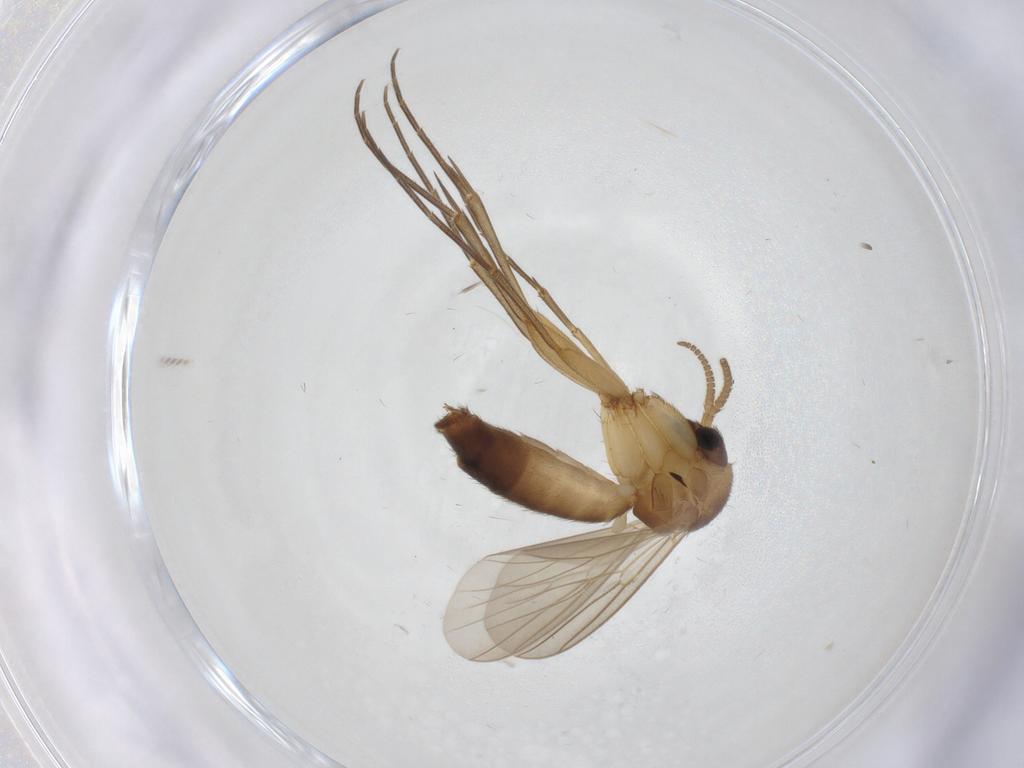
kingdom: Animalia
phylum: Arthropoda
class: Insecta
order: Diptera
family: Mycetophilidae
